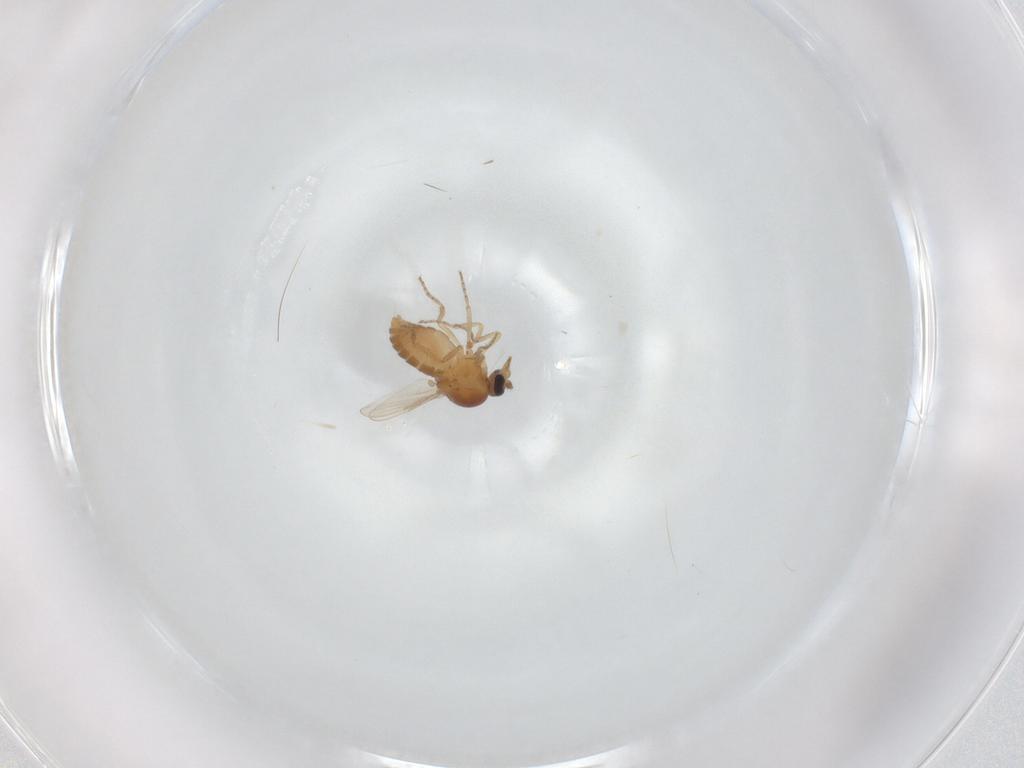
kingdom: Animalia
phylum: Arthropoda
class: Insecta
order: Diptera
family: Ceratopogonidae
